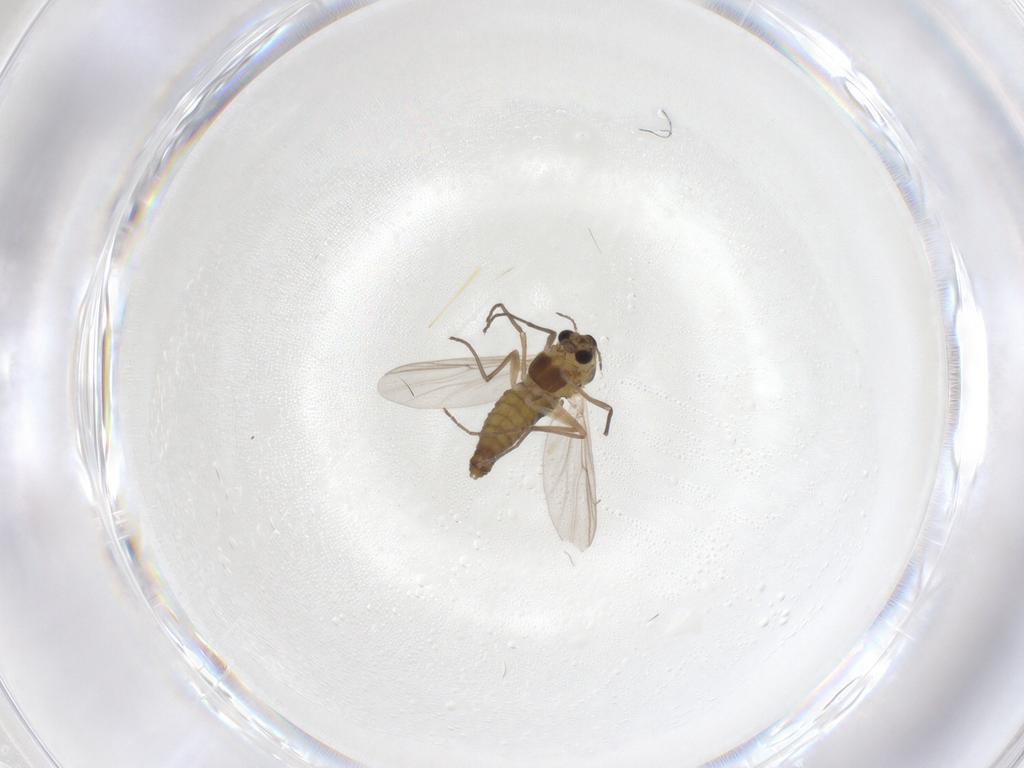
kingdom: Animalia
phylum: Arthropoda
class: Insecta
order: Diptera
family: Chironomidae
